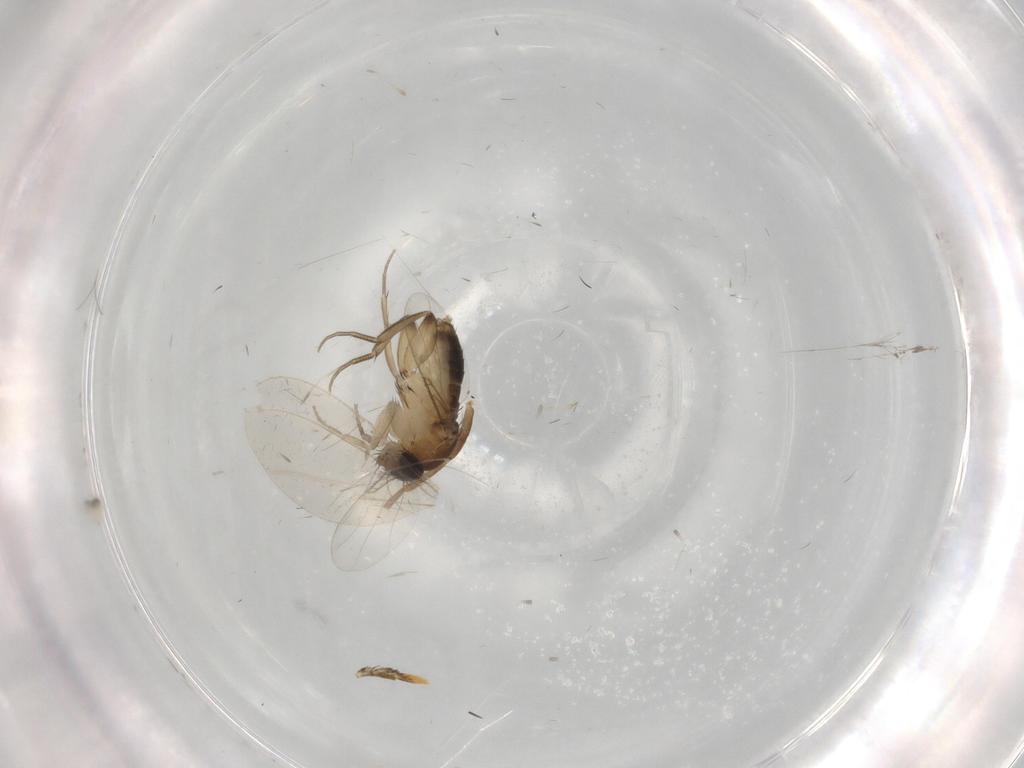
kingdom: Animalia
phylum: Arthropoda
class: Insecta
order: Diptera
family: Phoridae
